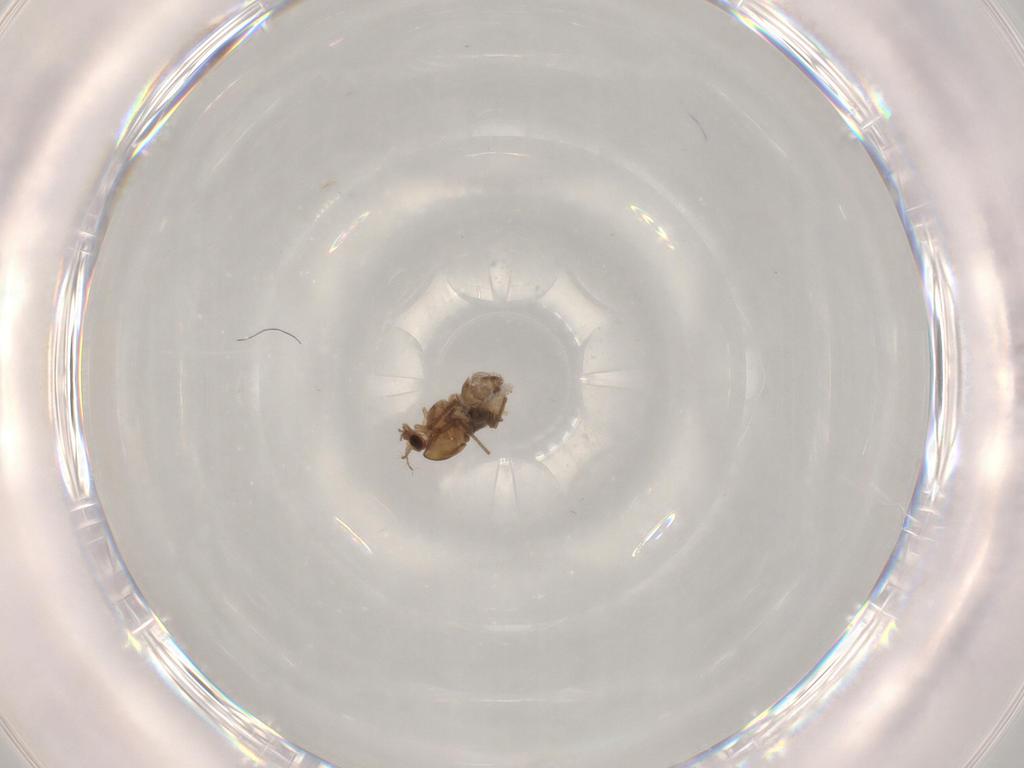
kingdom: Animalia
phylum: Arthropoda
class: Insecta
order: Diptera
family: Chironomidae
